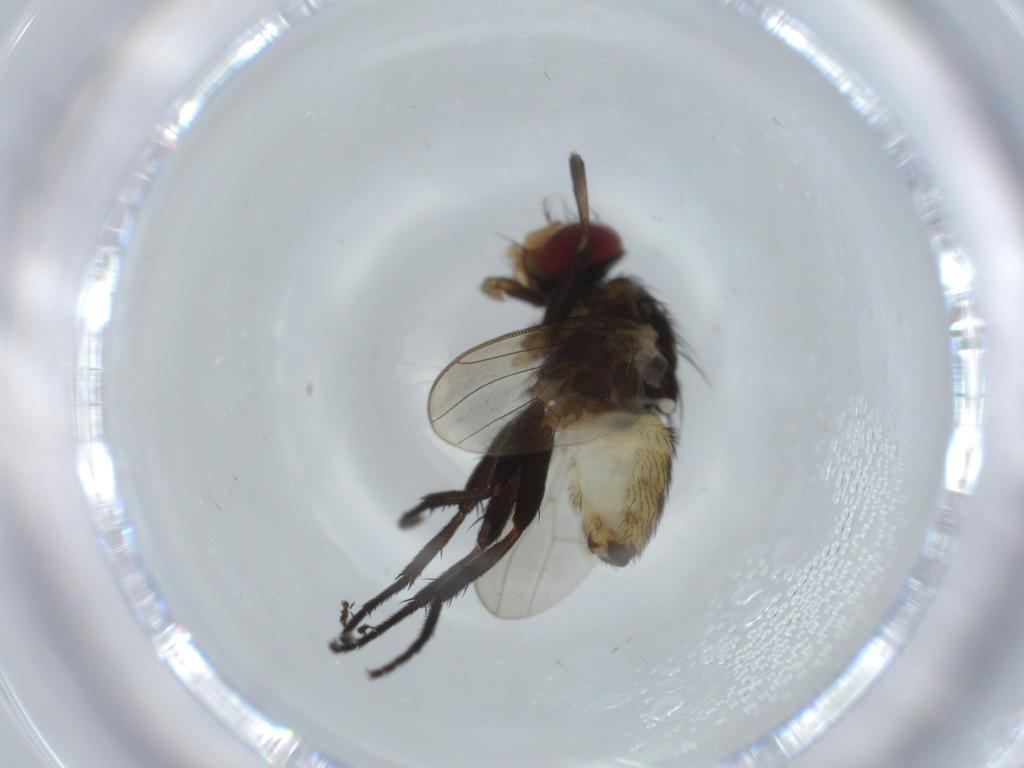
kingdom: Animalia
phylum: Arthropoda
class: Insecta
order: Diptera
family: Anthomyiidae
